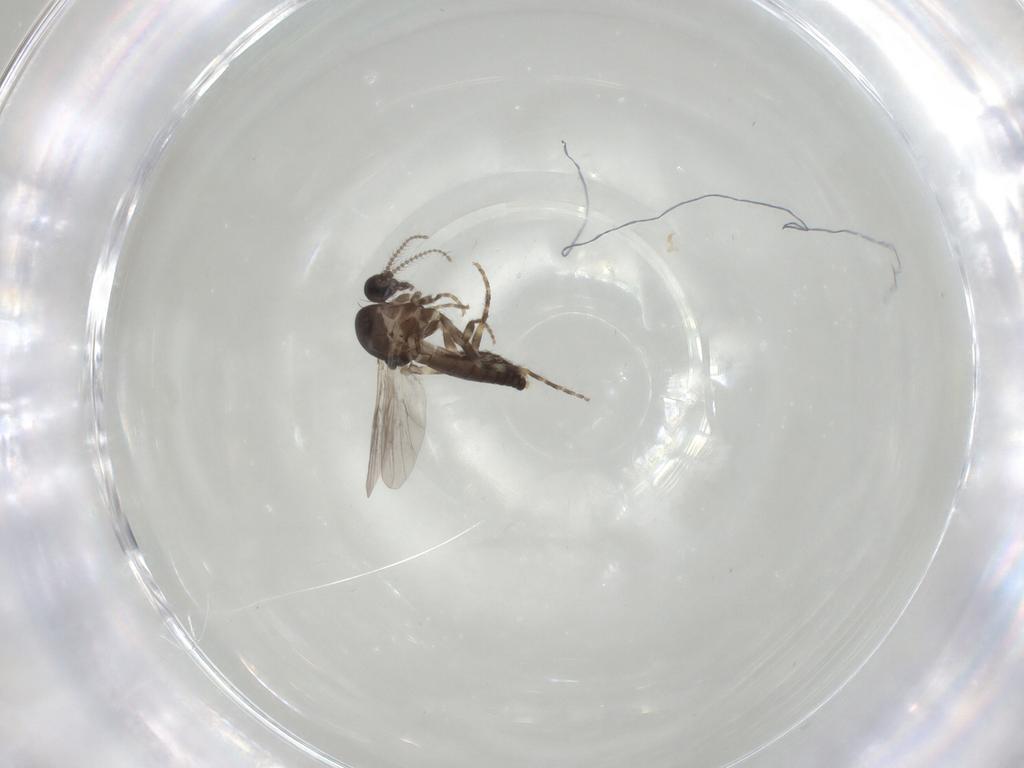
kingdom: Animalia
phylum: Arthropoda
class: Insecta
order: Diptera
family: Ceratopogonidae
